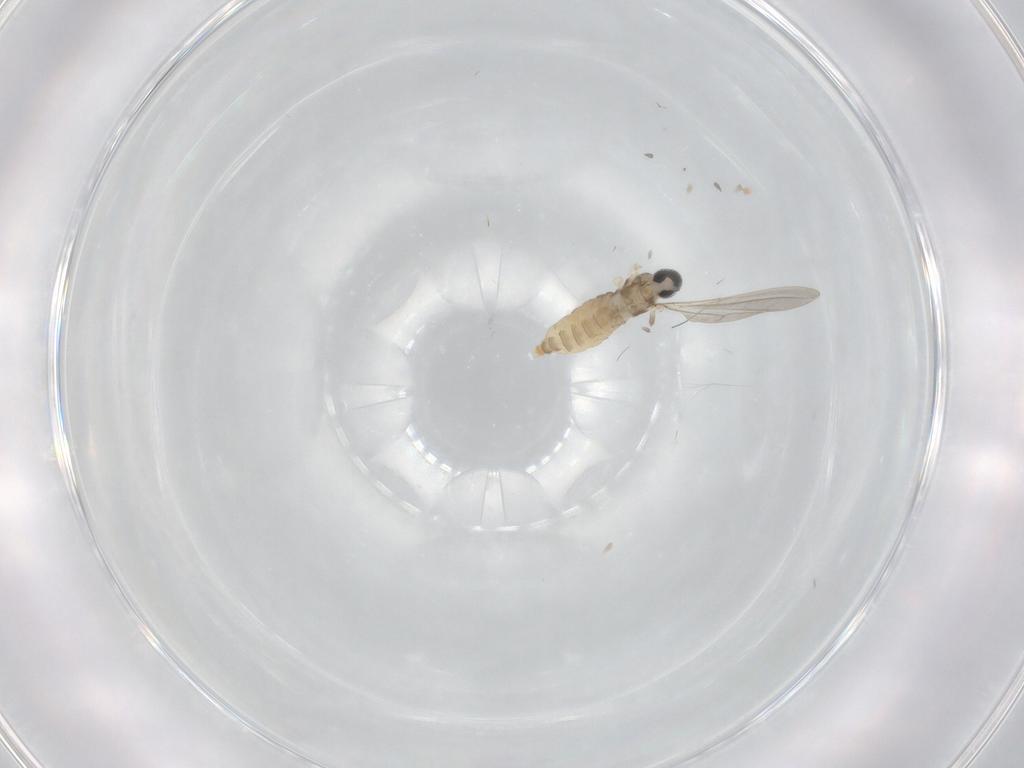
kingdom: Animalia
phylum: Arthropoda
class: Insecta
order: Diptera
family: Cecidomyiidae
